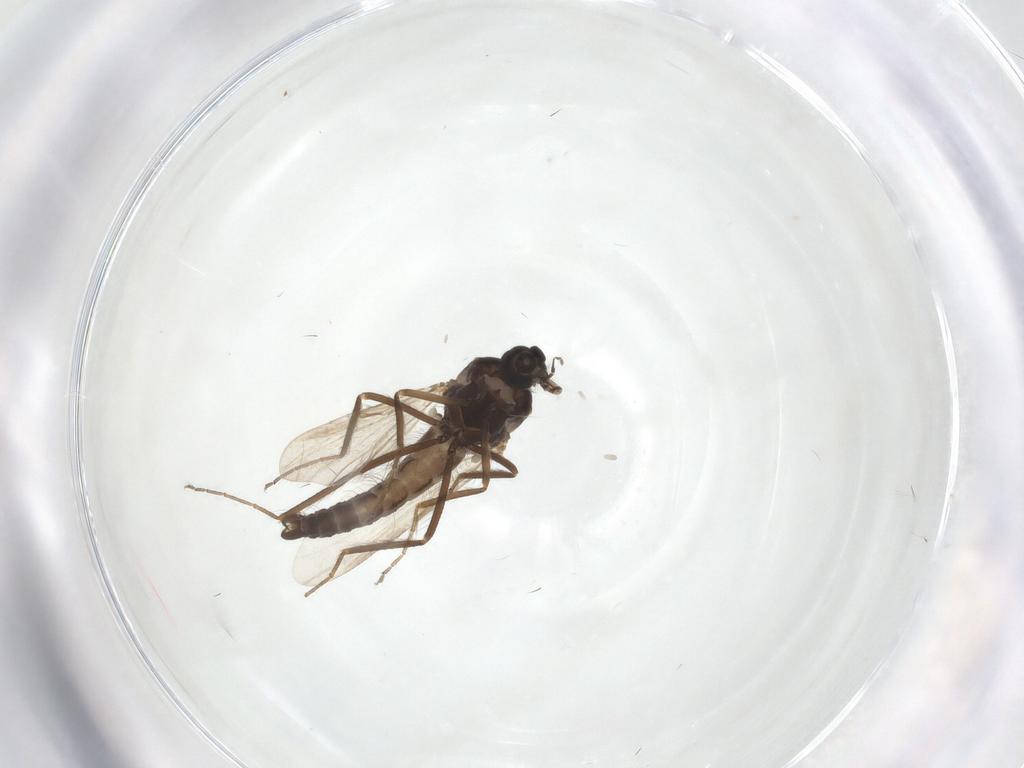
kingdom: Animalia
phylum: Arthropoda
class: Insecta
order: Diptera
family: Ceratopogonidae
